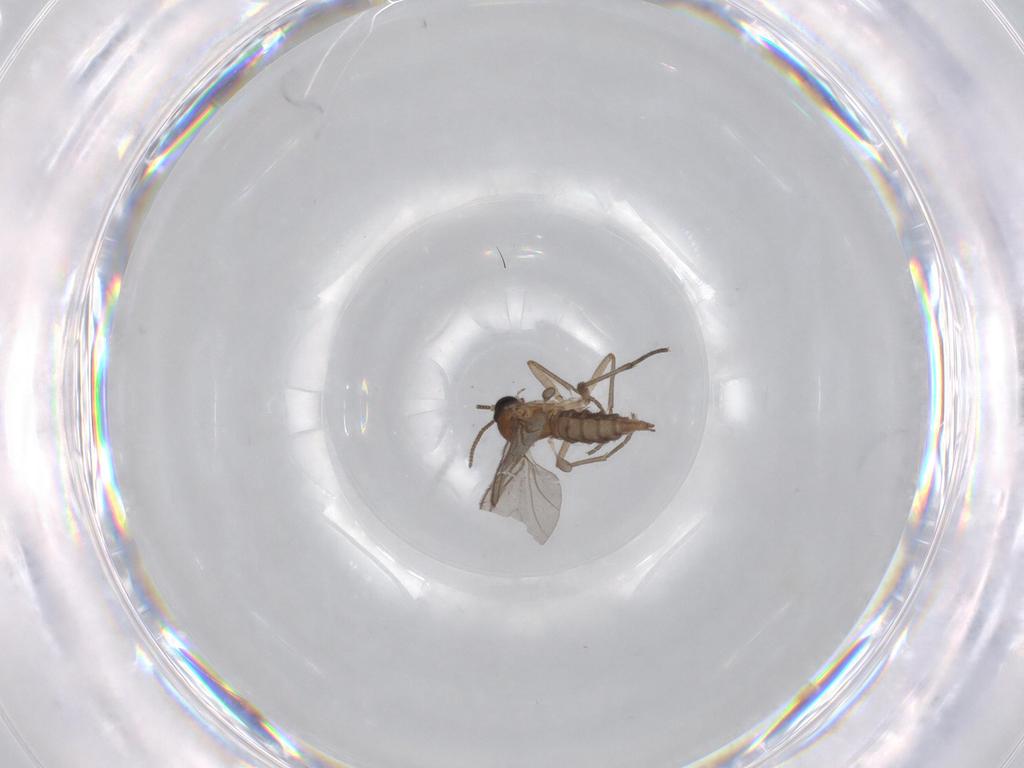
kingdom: Animalia
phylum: Arthropoda
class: Insecta
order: Diptera
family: Sciaridae
